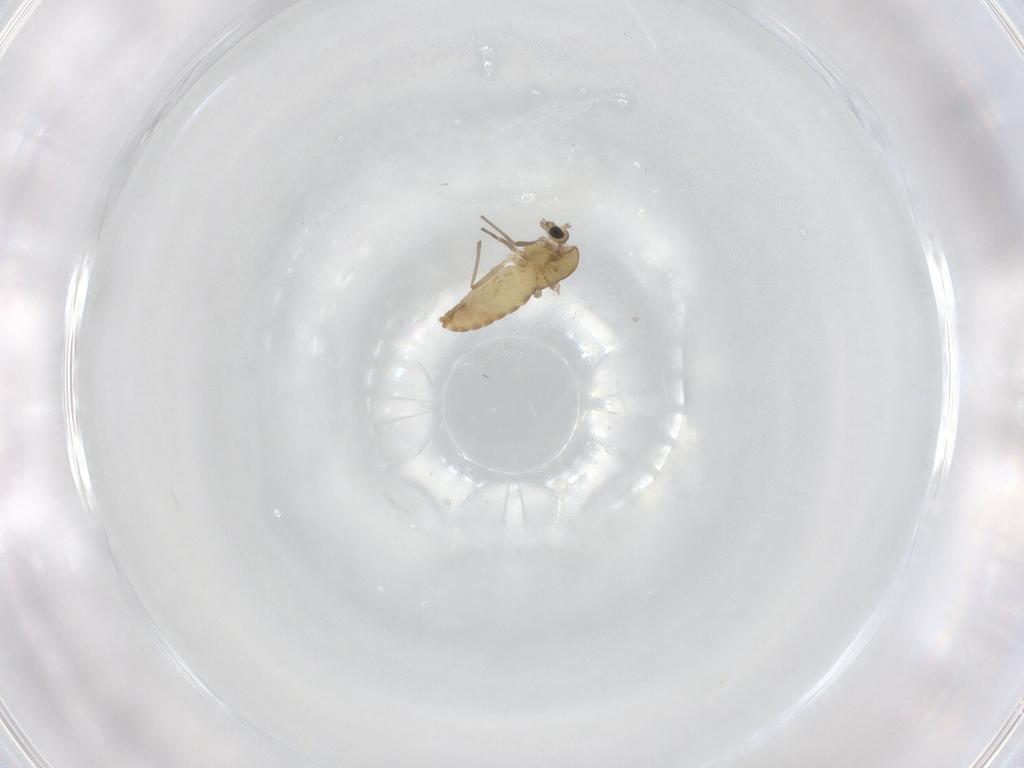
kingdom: Animalia
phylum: Arthropoda
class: Insecta
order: Diptera
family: Chironomidae
